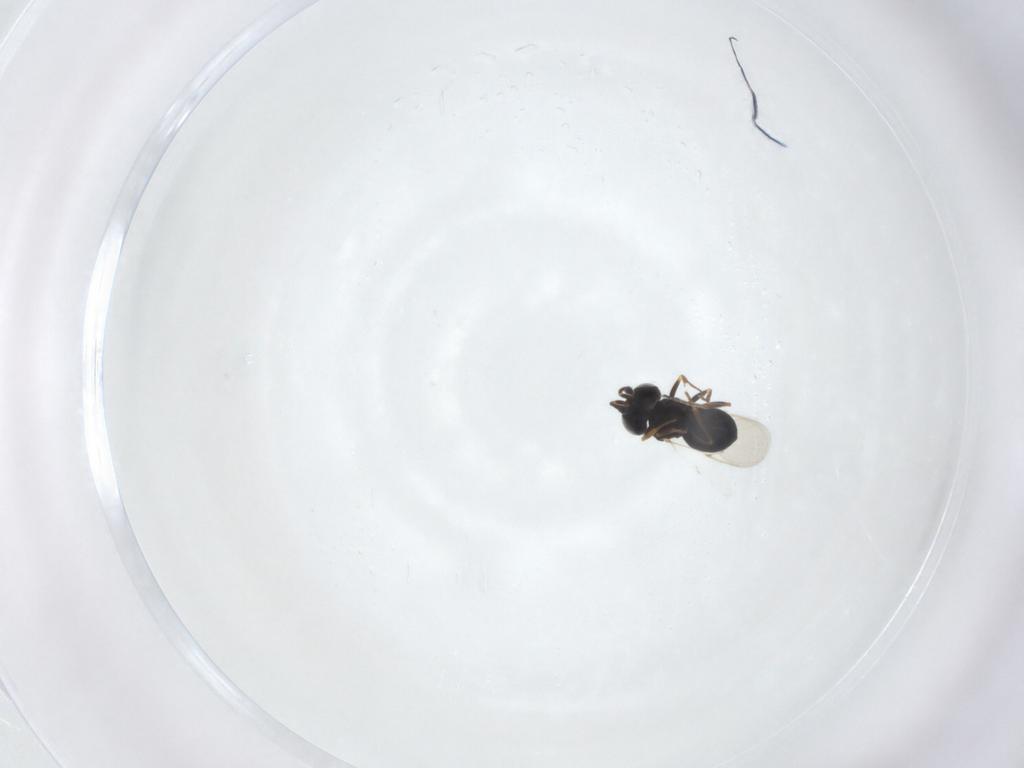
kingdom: Animalia
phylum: Arthropoda
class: Insecta
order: Hymenoptera
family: Scelionidae
